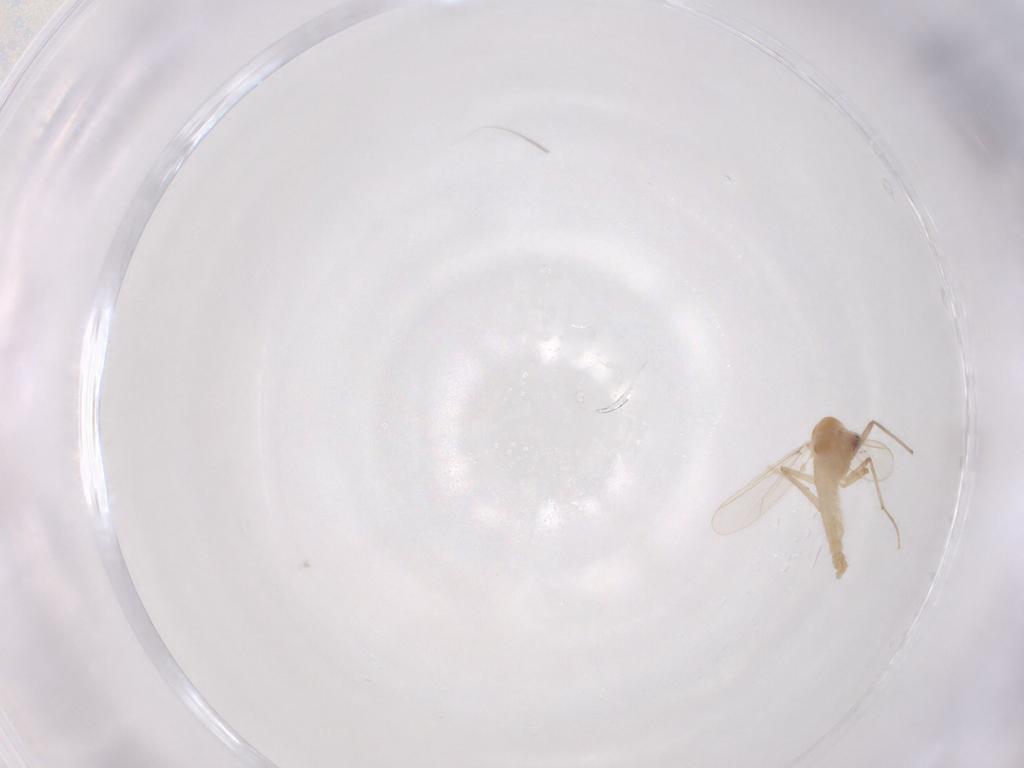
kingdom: Animalia
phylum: Arthropoda
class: Insecta
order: Diptera
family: Chironomidae
